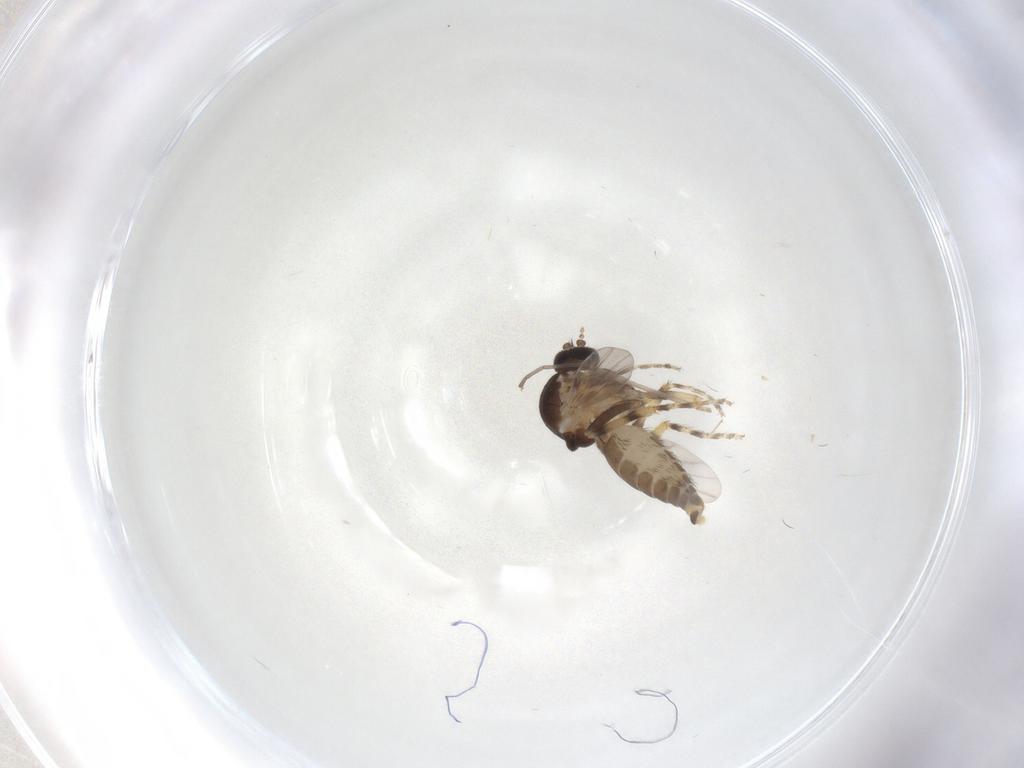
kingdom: Animalia
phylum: Arthropoda
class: Insecta
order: Diptera
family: Ceratopogonidae
